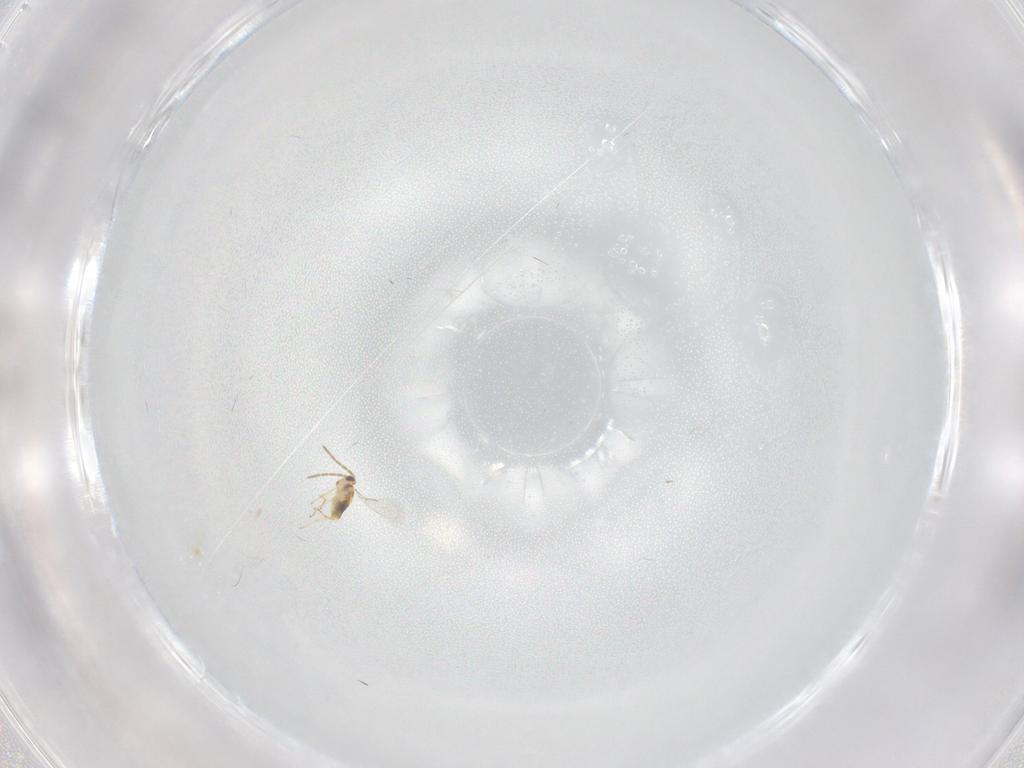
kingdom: Animalia
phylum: Arthropoda
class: Insecta
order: Hymenoptera
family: Aphelinidae
